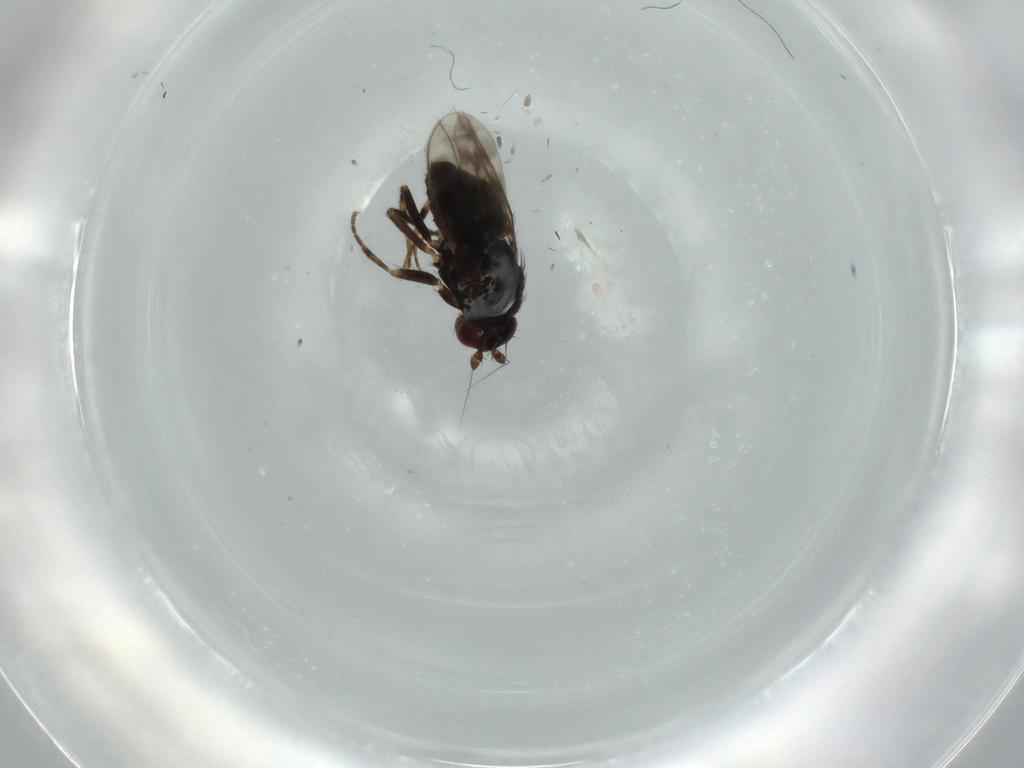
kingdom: Animalia
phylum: Arthropoda
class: Insecta
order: Diptera
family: Sphaeroceridae
